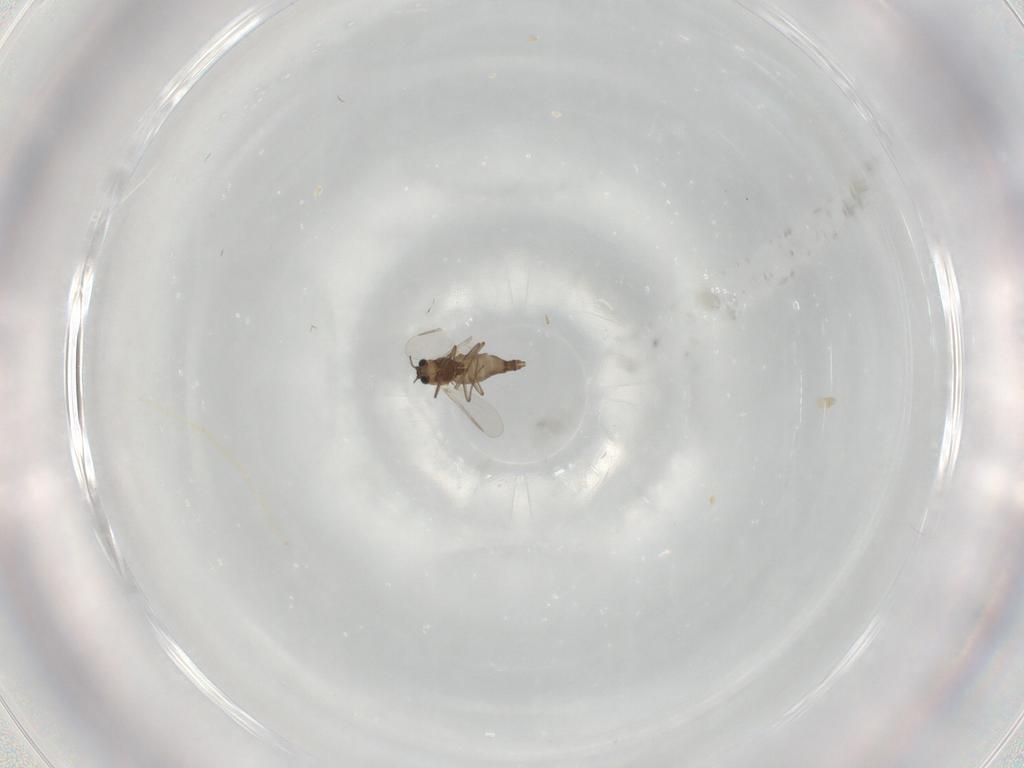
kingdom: Animalia
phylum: Arthropoda
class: Insecta
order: Diptera
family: Chironomidae
